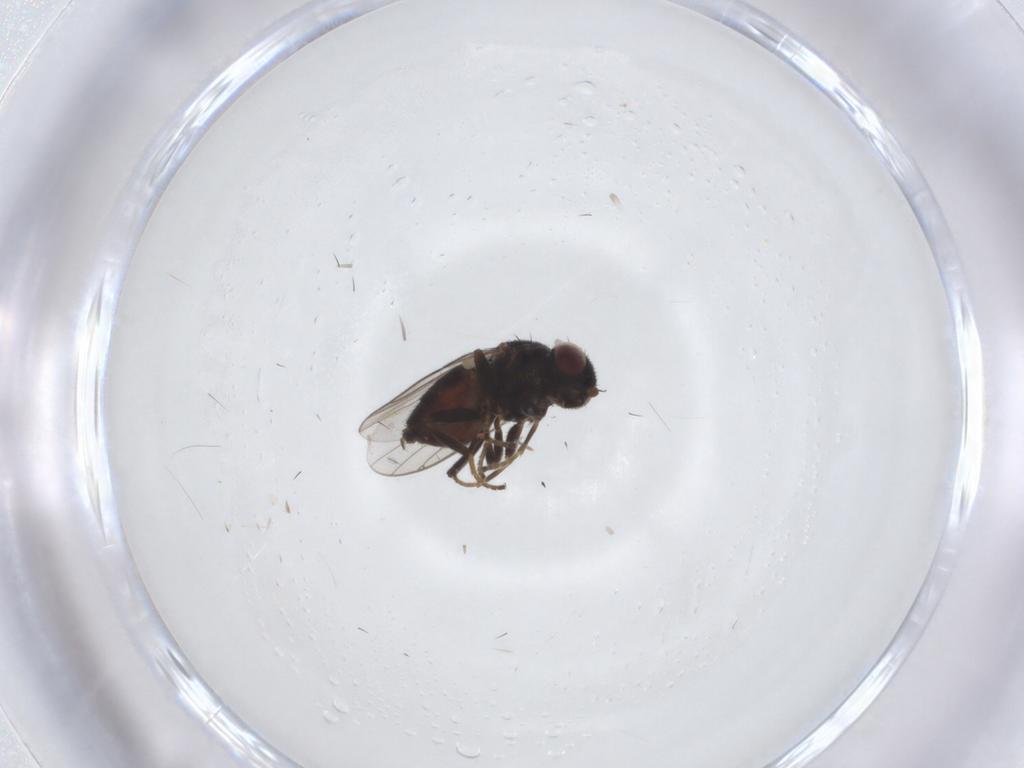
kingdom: Animalia
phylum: Arthropoda
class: Insecta
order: Diptera
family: Chloropidae
